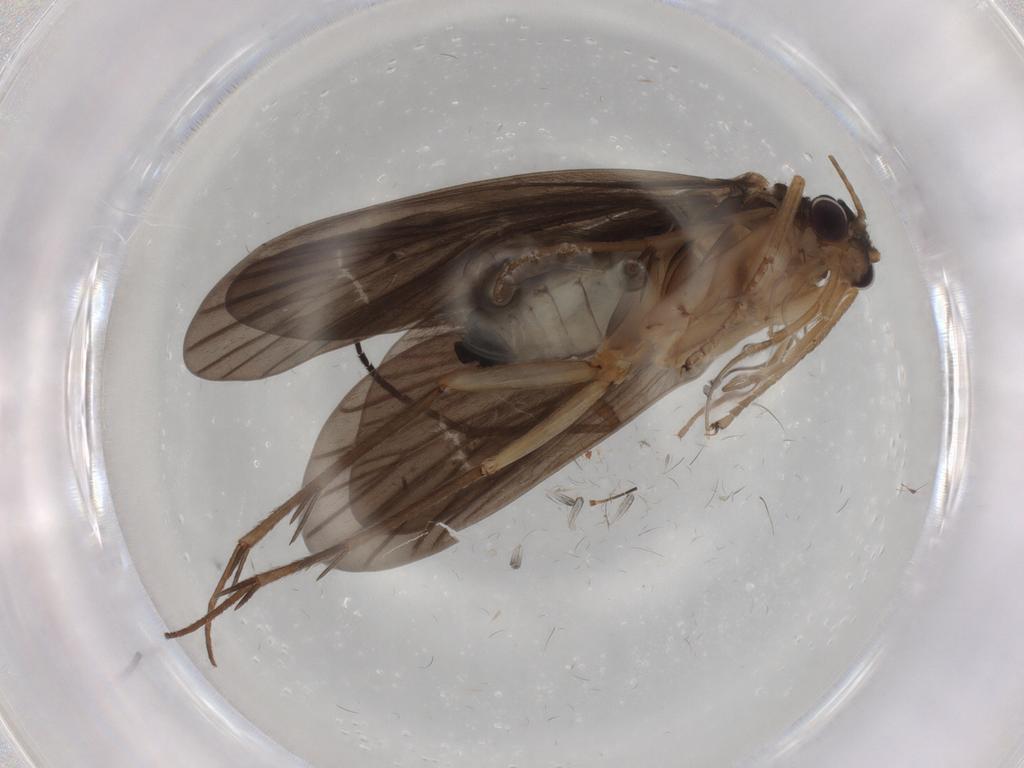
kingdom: Animalia
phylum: Arthropoda
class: Insecta
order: Trichoptera
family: Philopotamidae
